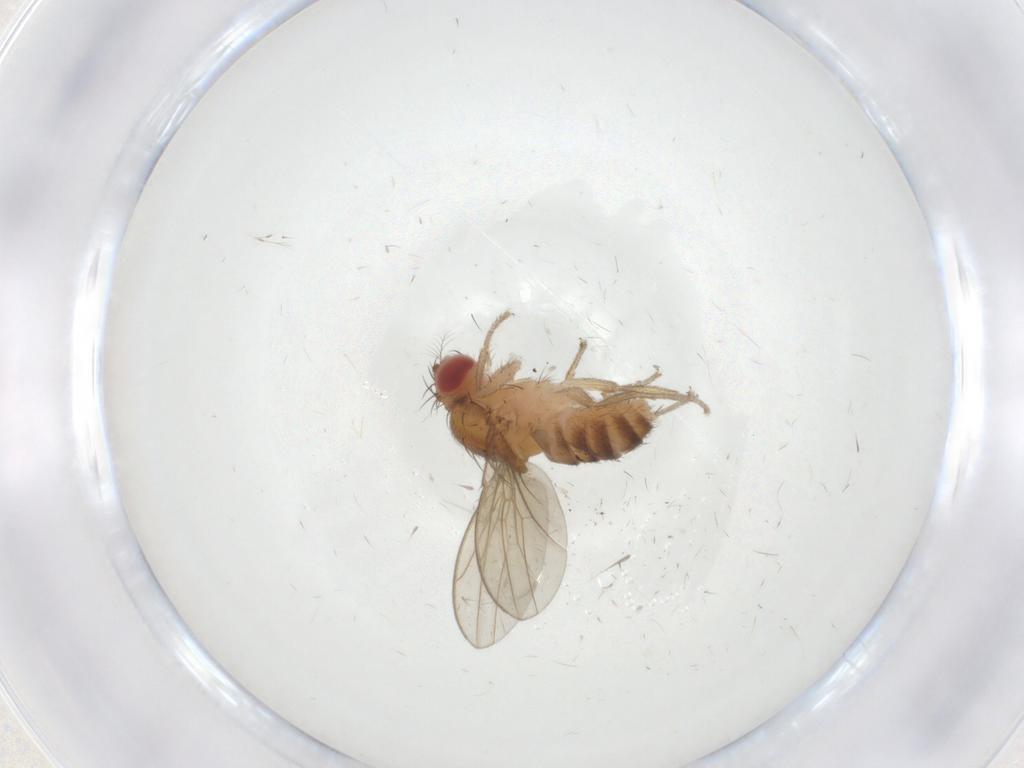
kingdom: Animalia
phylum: Arthropoda
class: Insecta
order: Diptera
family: Drosophilidae
